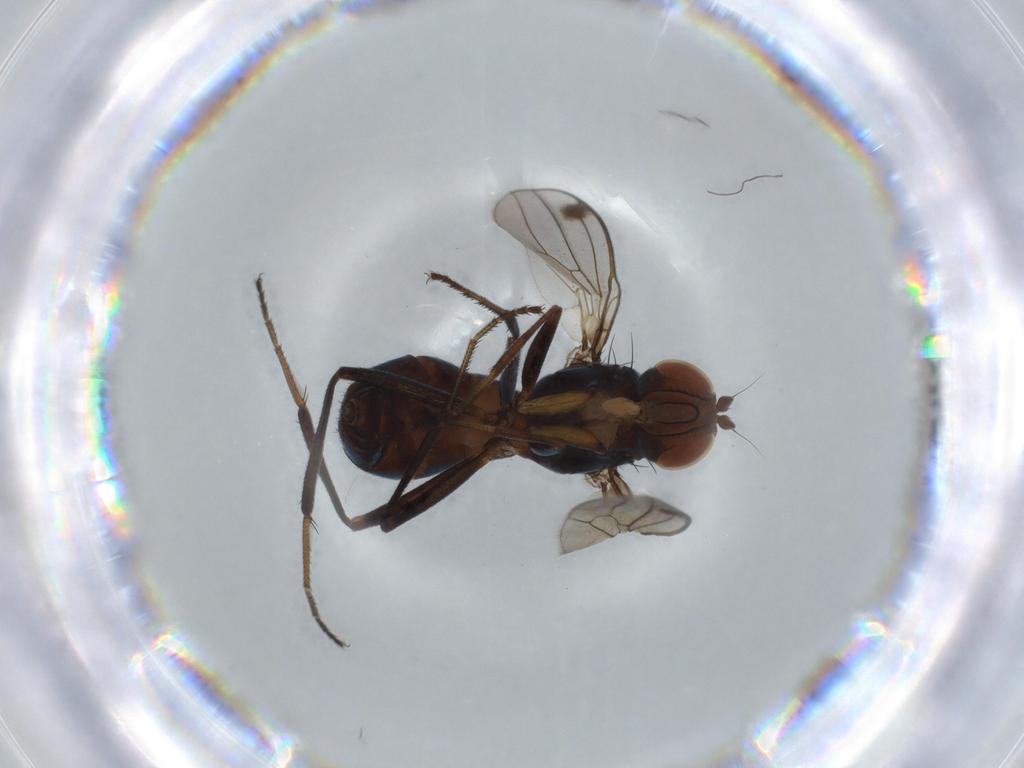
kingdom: Animalia
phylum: Arthropoda
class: Insecta
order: Diptera
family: Sepsidae
